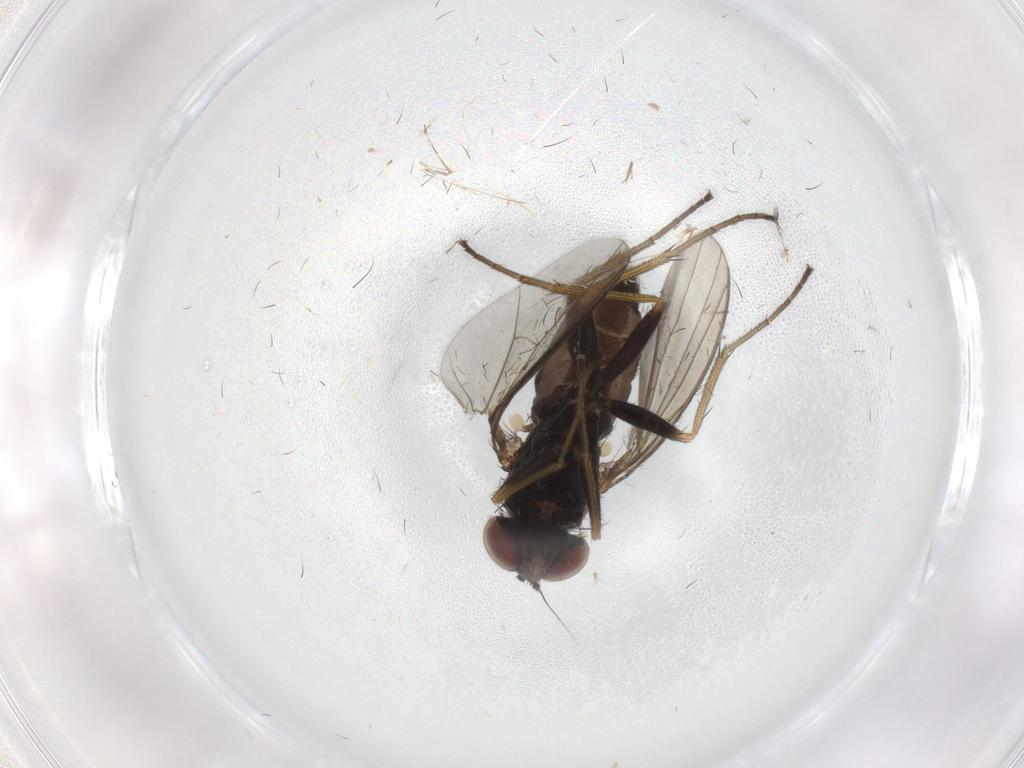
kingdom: Animalia
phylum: Arthropoda
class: Insecta
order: Diptera
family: Dolichopodidae
